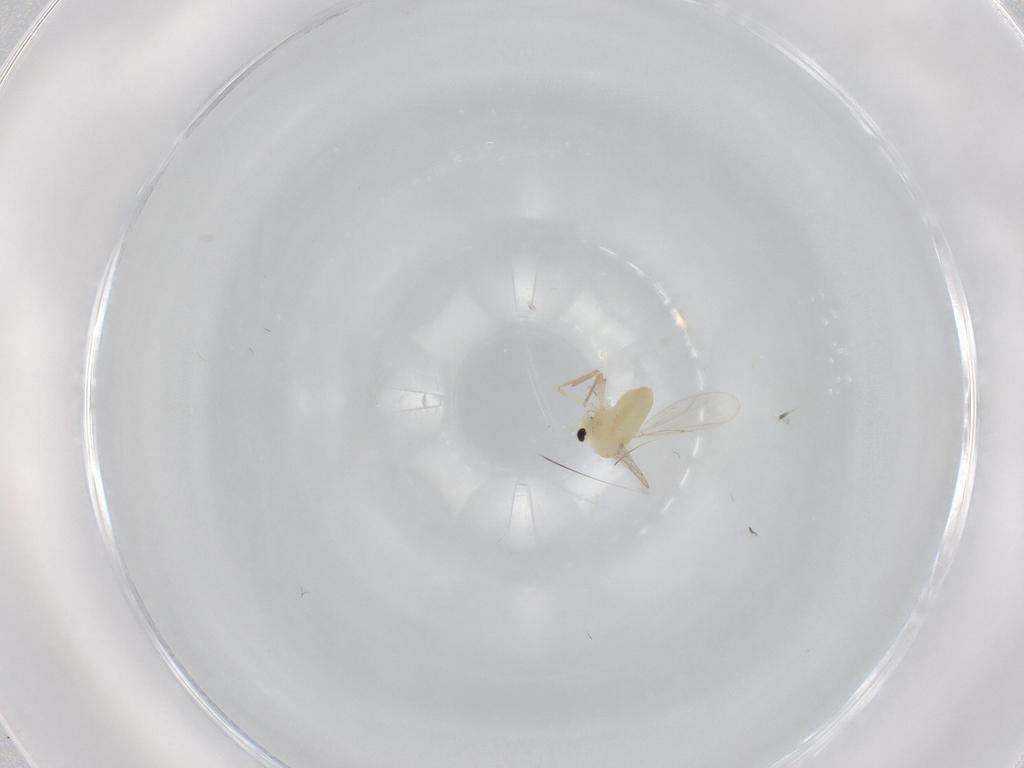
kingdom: Animalia
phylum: Arthropoda
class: Insecta
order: Diptera
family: Chironomidae
